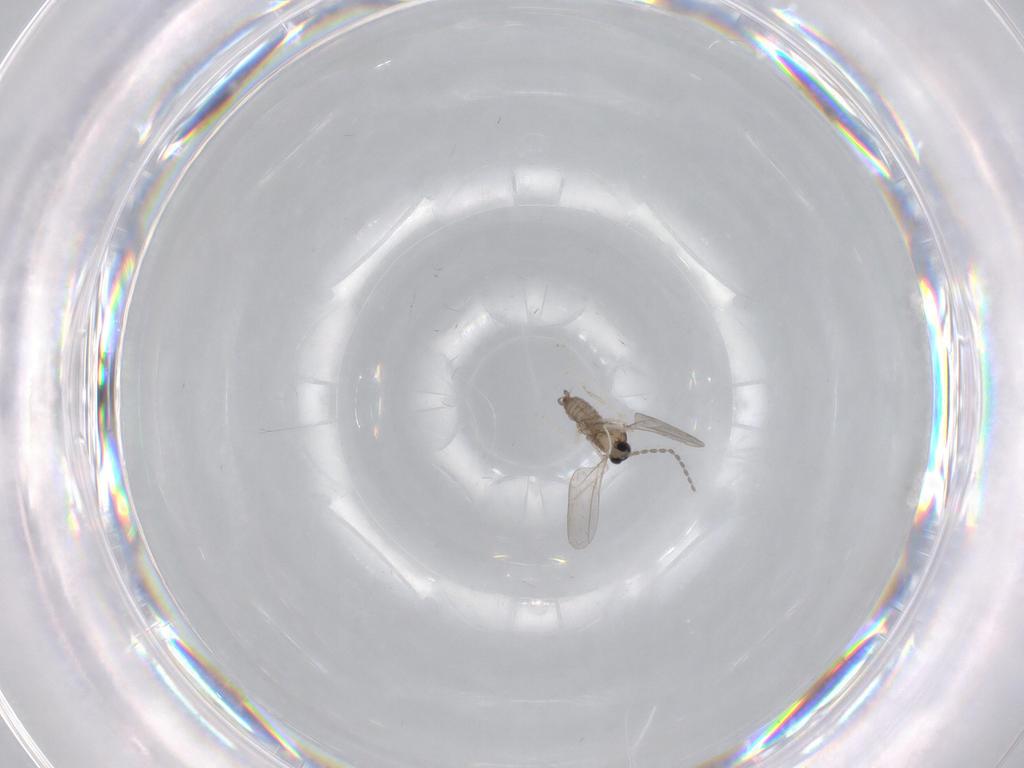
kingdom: Animalia
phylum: Arthropoda
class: Insecta
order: Diptera
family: Cecidomyiidae
